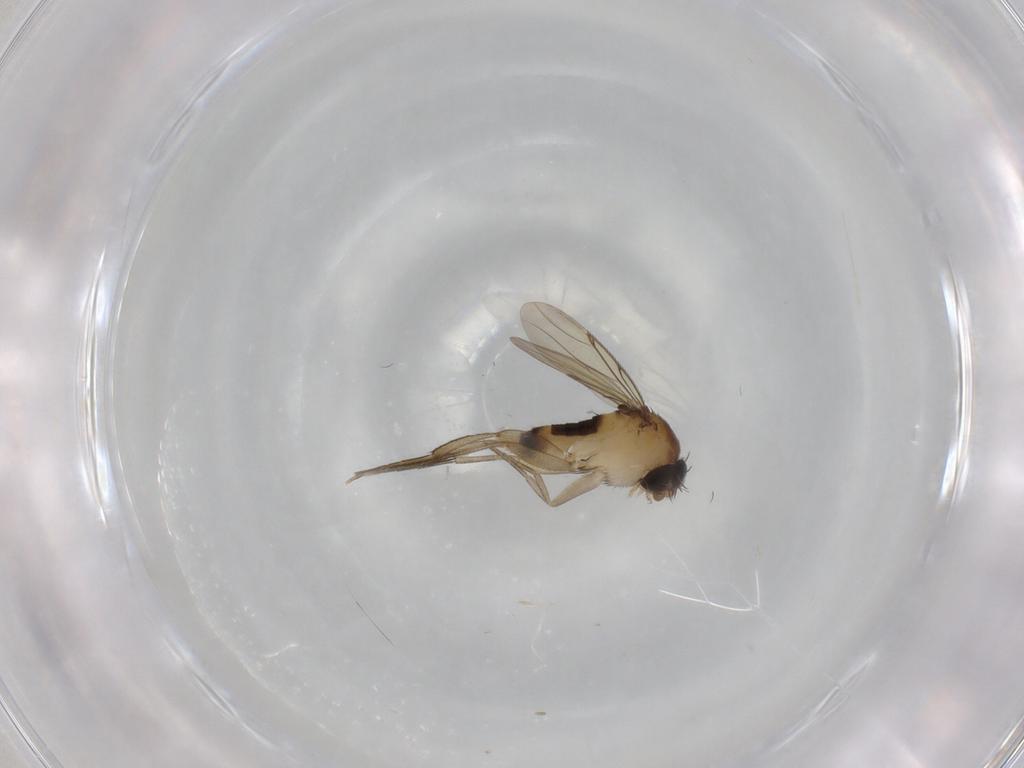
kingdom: Animalia
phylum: Arthropoda
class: Insecta
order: Diptera
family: Phoridae
